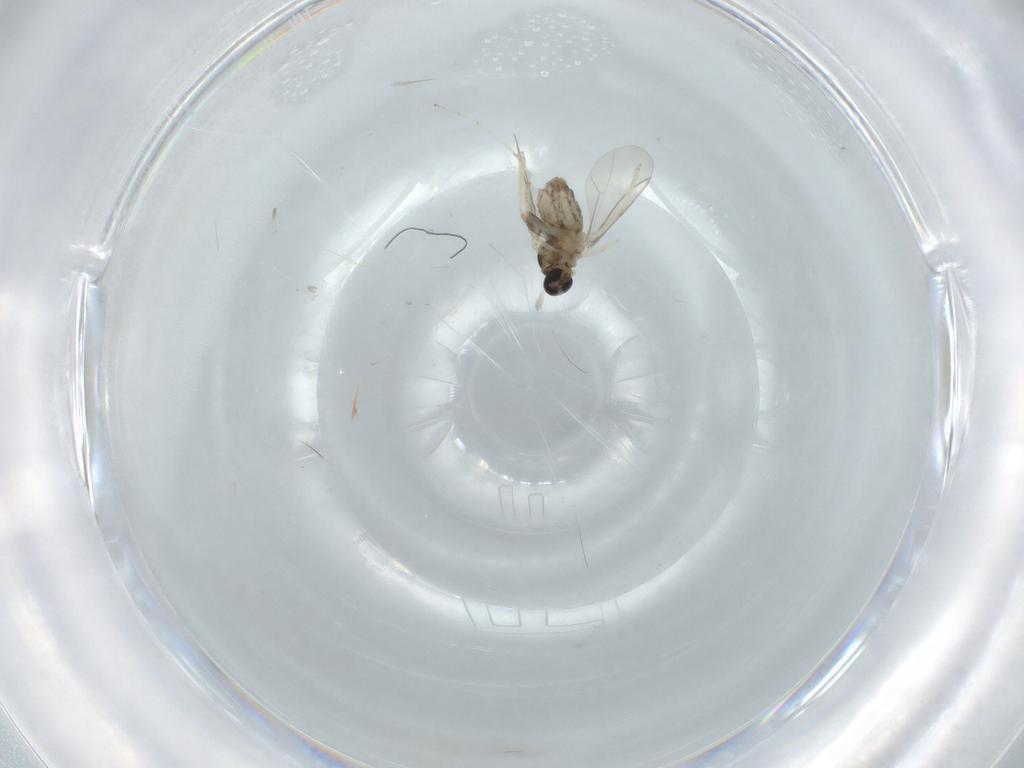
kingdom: Animalia
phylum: Arthropoda
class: Insecta
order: Diptera
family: Tephritidae
